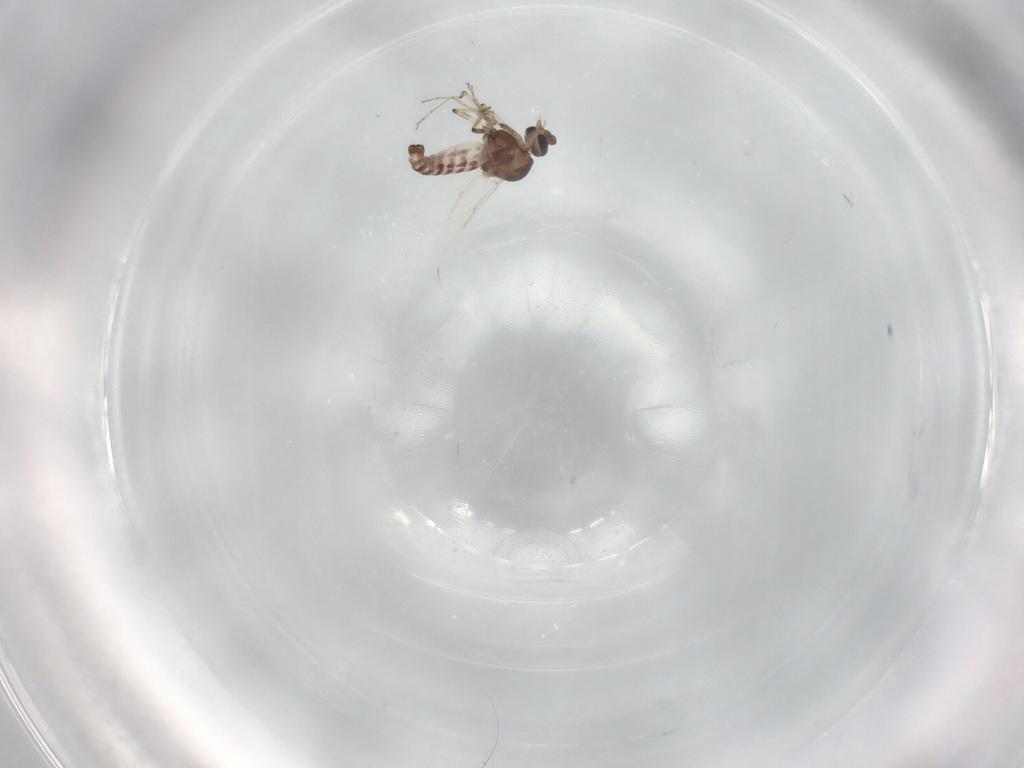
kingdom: Animalia
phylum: Arthropoda
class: Insecta
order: Diptera
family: Ceratopogonidae
